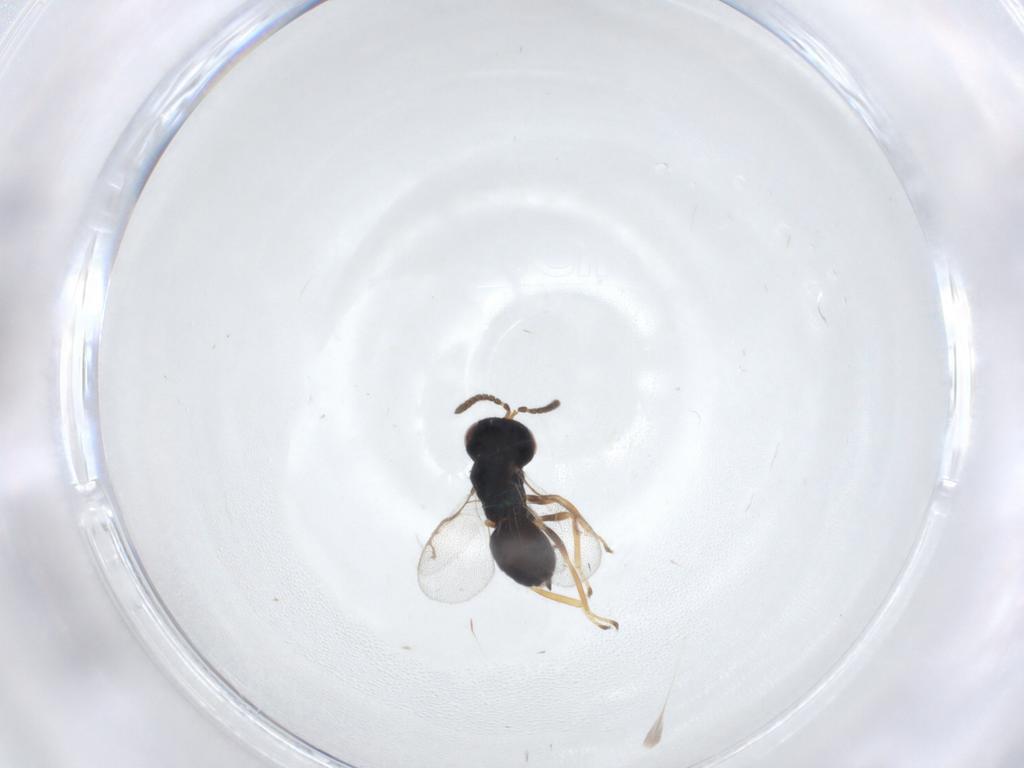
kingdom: Animalia
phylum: Arthropoda
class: Insecta
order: Hymenoptera
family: Pteromalidae
